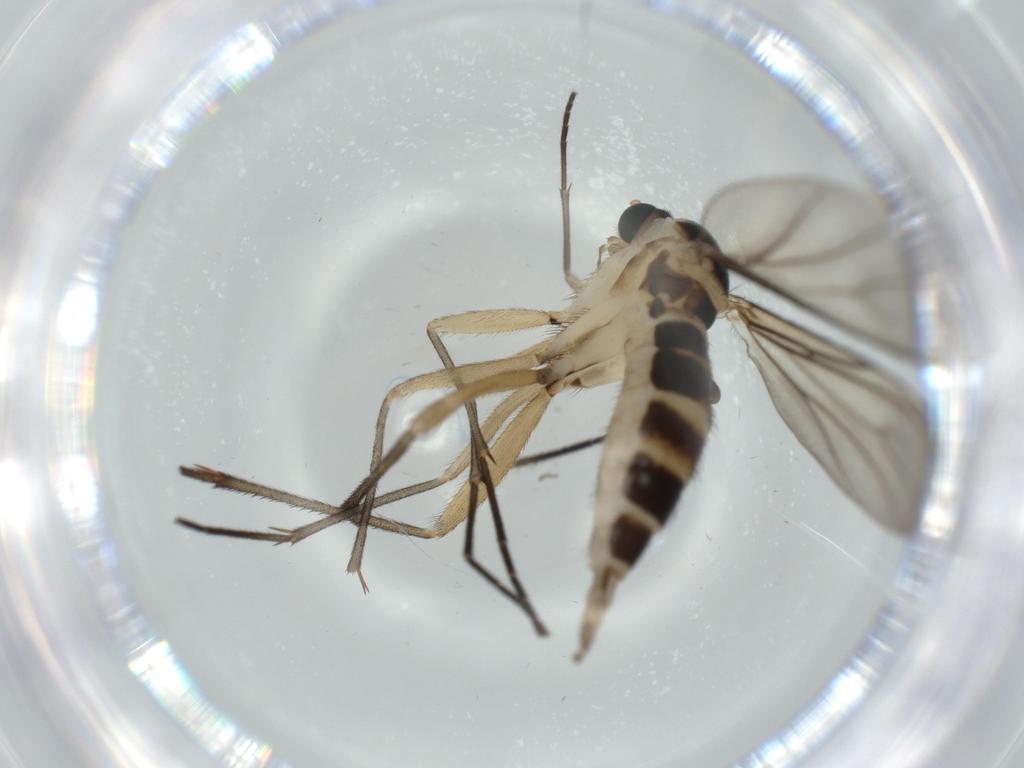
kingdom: Animalia
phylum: Arthropoda
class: Insecta
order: Diptera
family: Sciaridae
